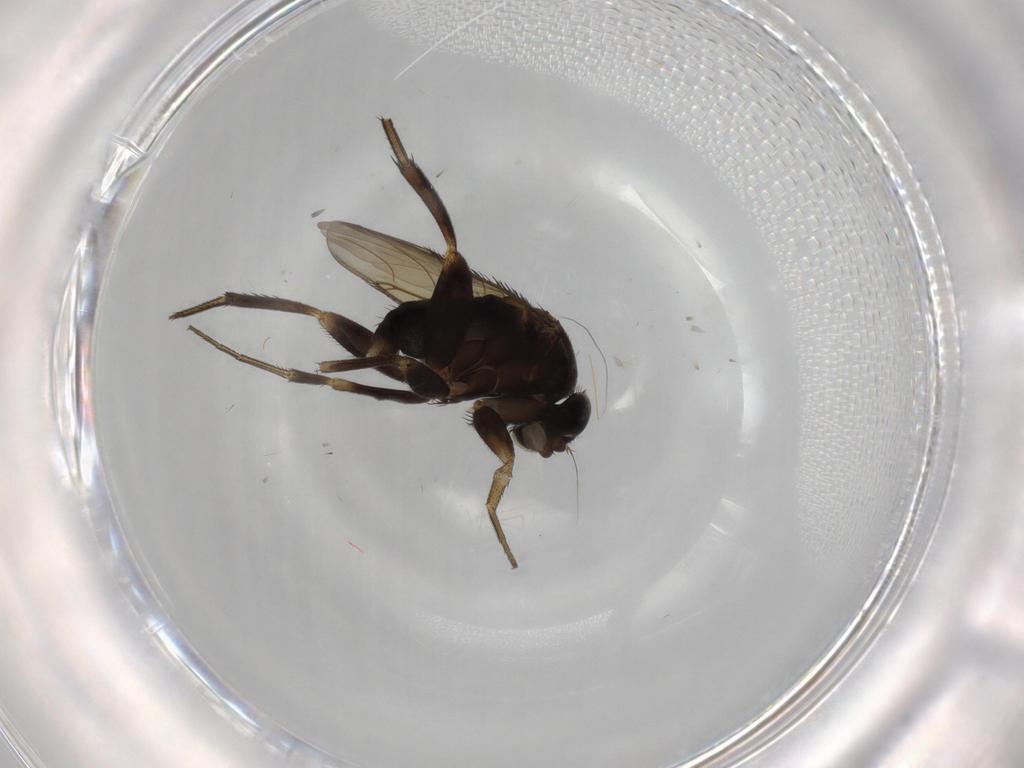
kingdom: Animalia
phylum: Arthropoda
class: Insecta
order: Diptera
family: Phoridae
